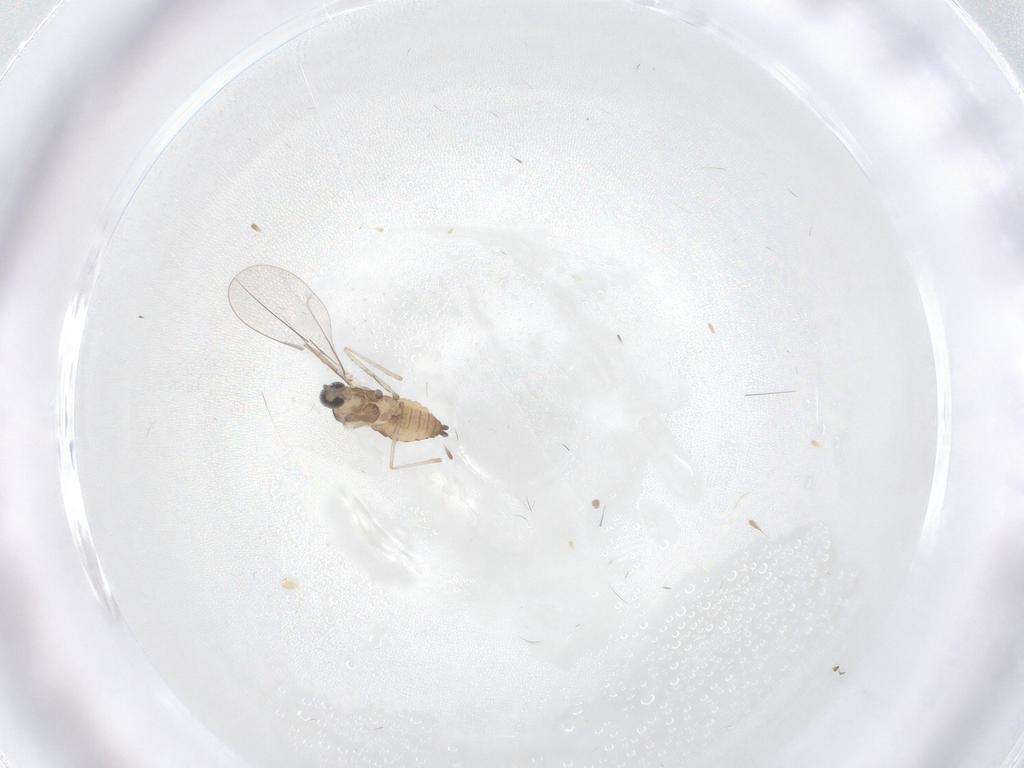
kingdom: Animalia
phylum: Arthropoda
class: Insecta
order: Diptera
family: Cecidomyiidae
